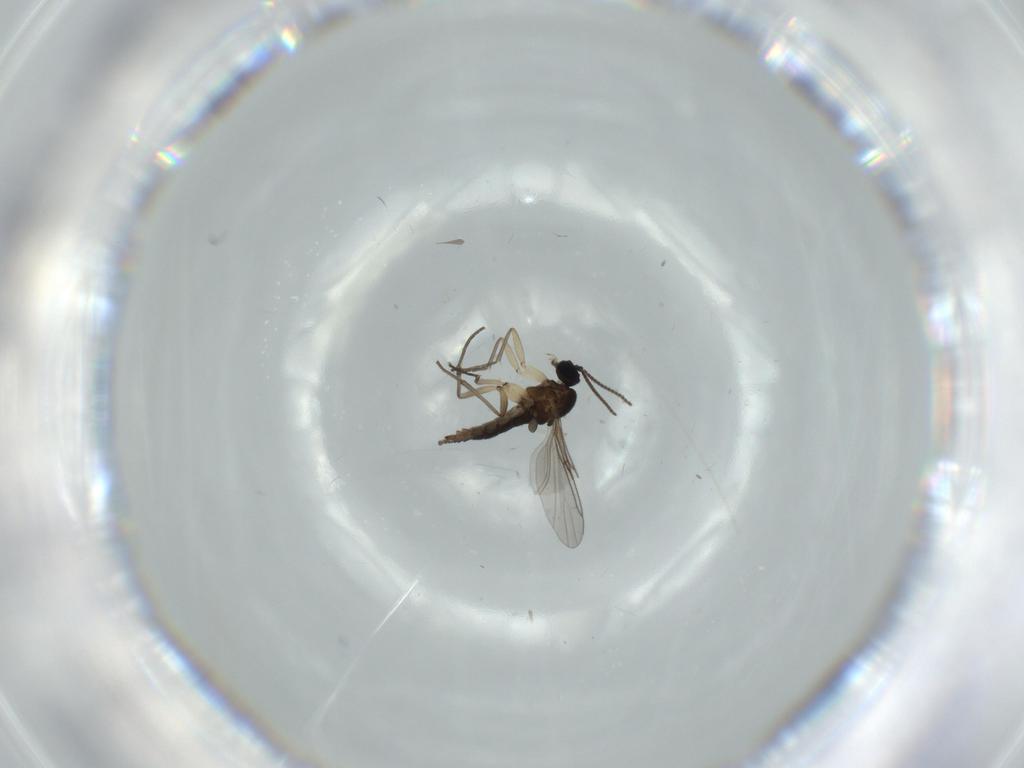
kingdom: Animalia
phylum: Arthropoda
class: Insecta
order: Diptera
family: Sciaridae
